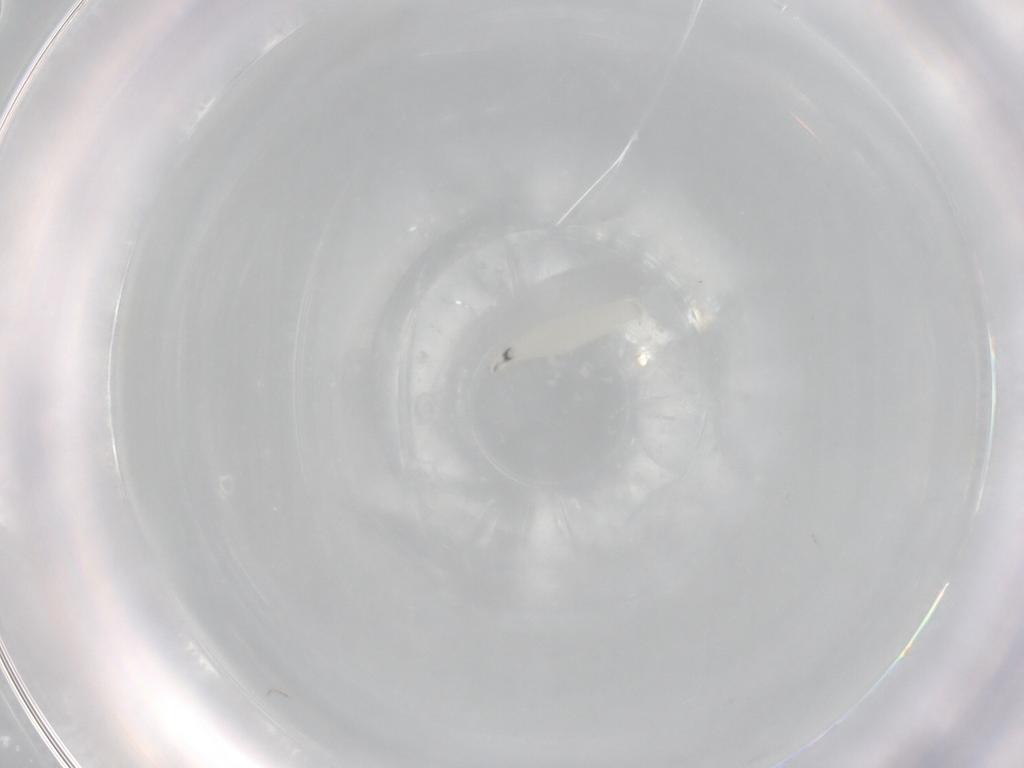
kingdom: Animalia
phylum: Arthropoda
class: Insecta
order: Diptera
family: Sarcophagidae
